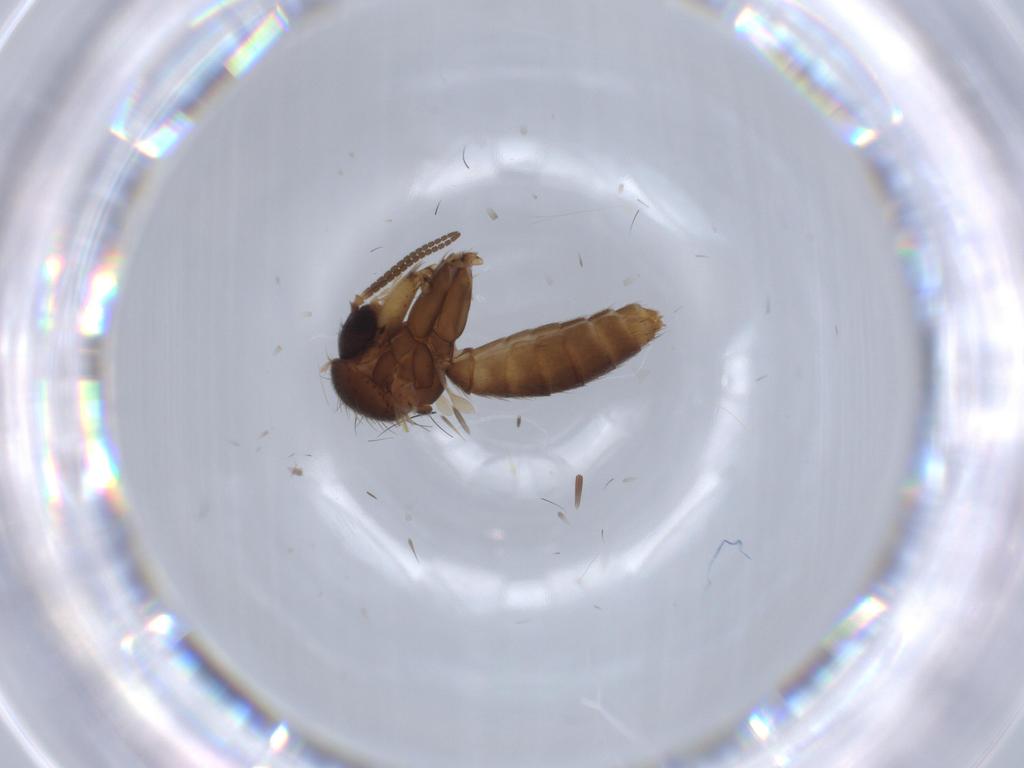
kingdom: Animalia
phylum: Arthropoda
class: Insecta
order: Diptera
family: Mycetophilidae
